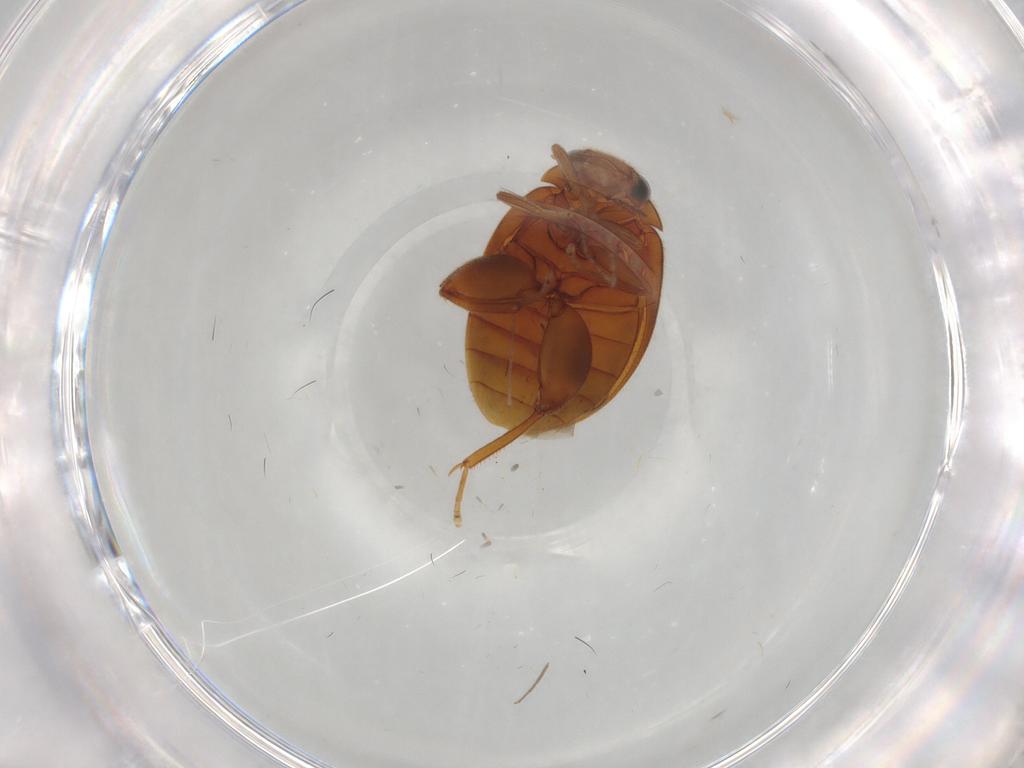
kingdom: Animalia
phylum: Arthropoda
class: Insecta
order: Coleoptera
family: Scirtidae
